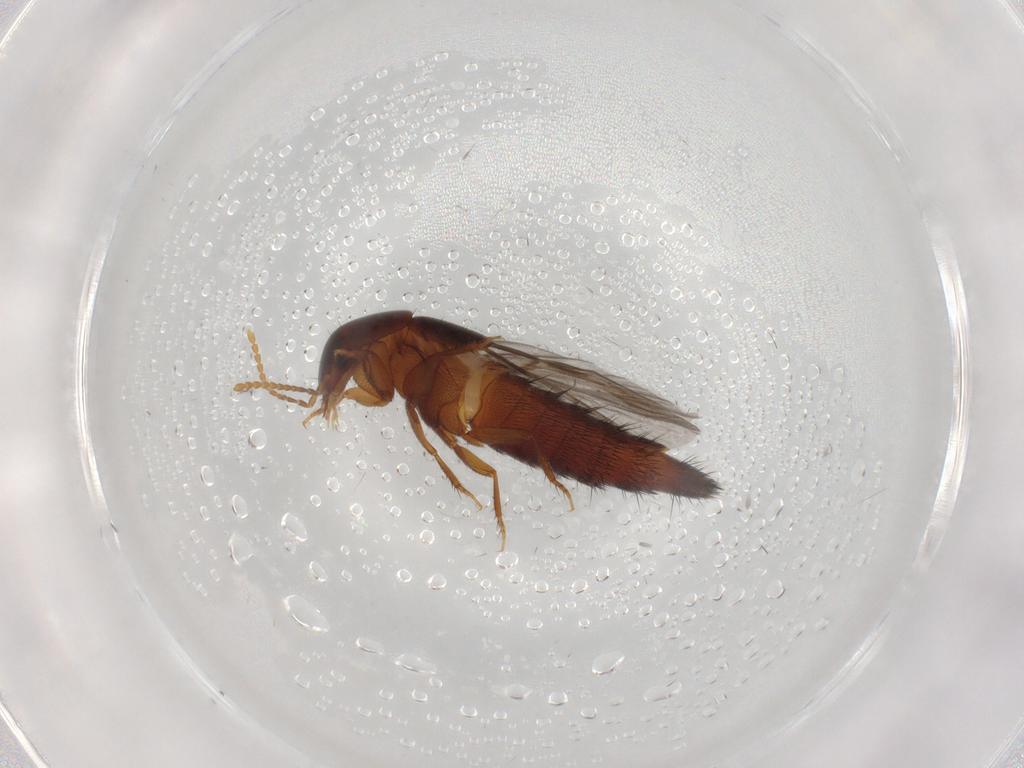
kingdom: Animalia
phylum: Arthropoda
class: Insecta
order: Coleoptera
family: Staphylinidae
